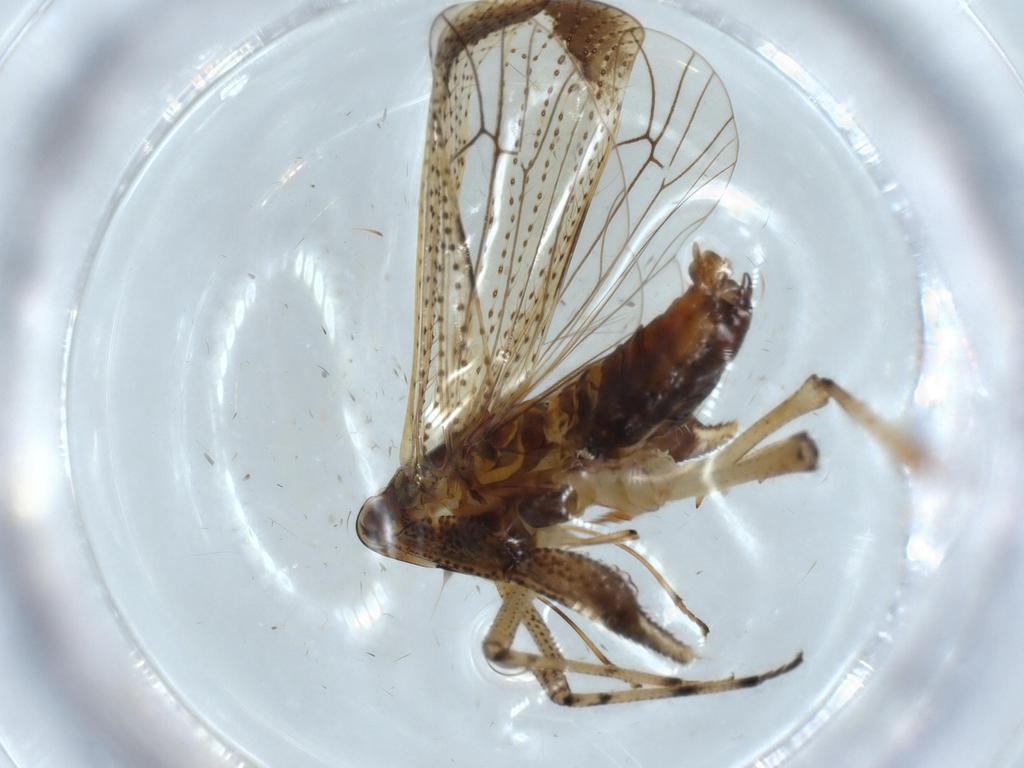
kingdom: Animalia
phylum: Arthropoda
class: Insecta
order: Hemiptera
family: Delphacidae
